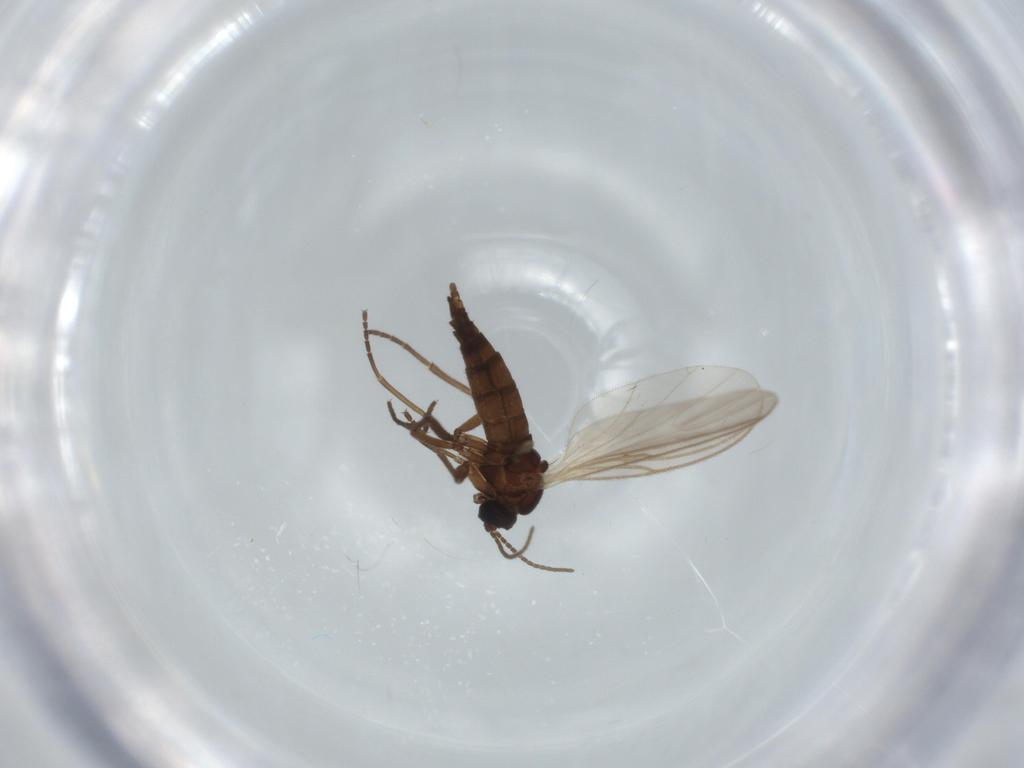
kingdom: Animalia
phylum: Arthropoda
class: Insecta
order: Diptera
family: Sciaridae
